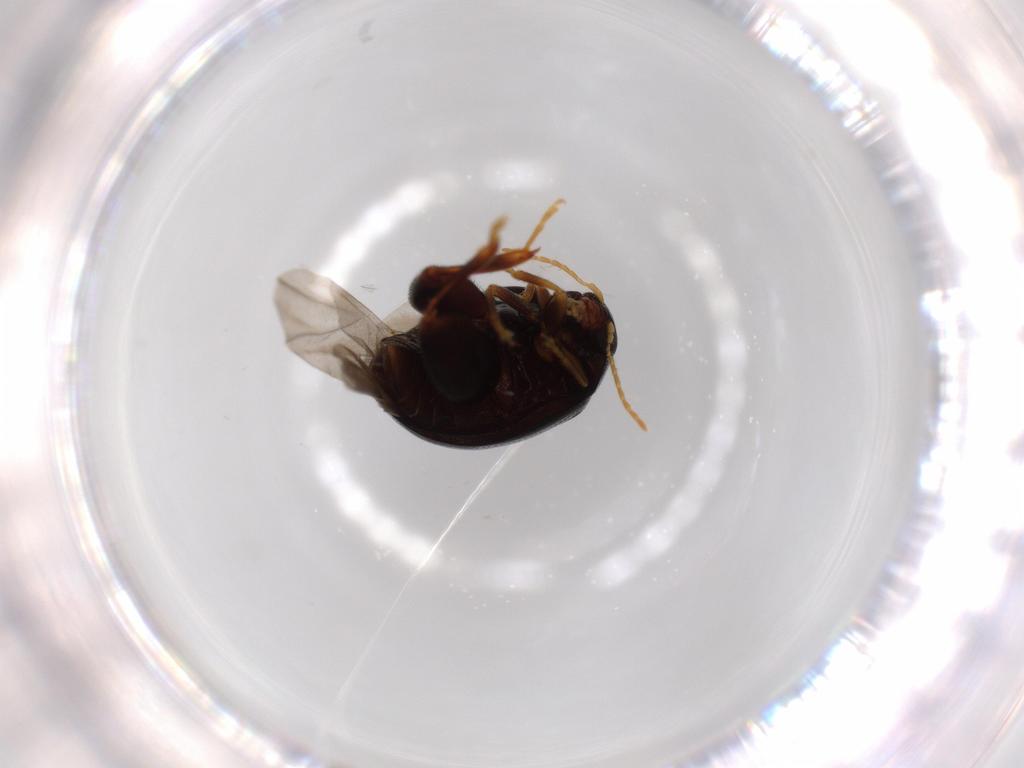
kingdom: Animalia
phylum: Arthropoda
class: Insecta
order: Coleoptera
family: Chrysomelidae
